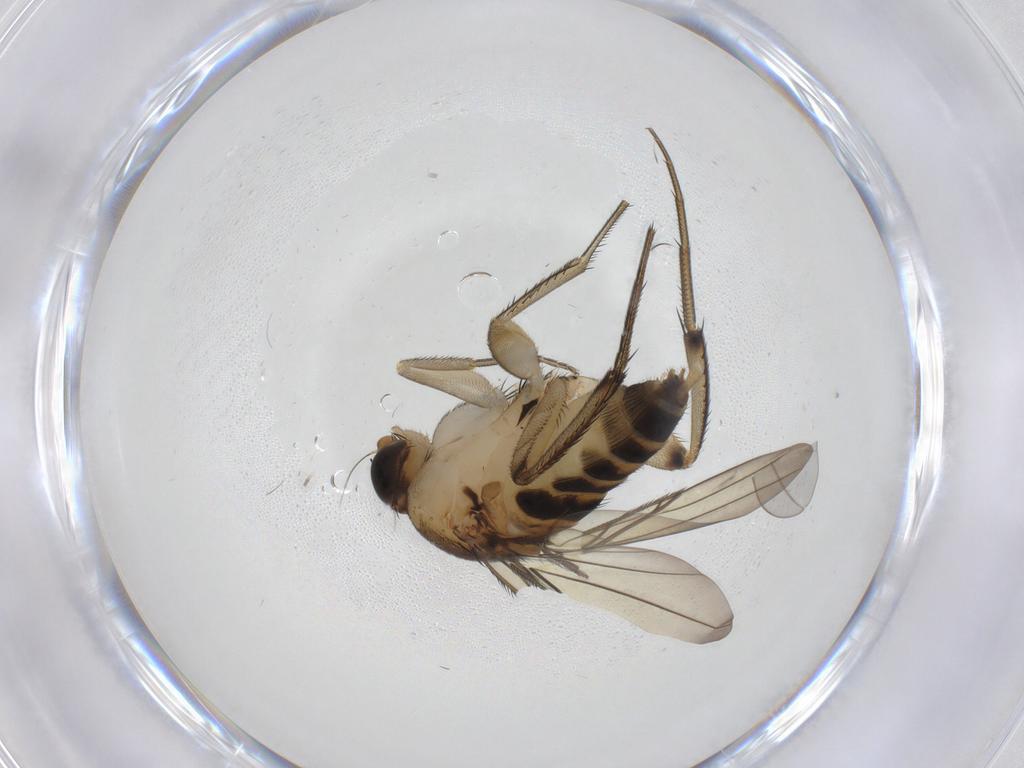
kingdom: Animalia
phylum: Arthropoda
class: Insecta
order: Diptera
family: Phoridae
